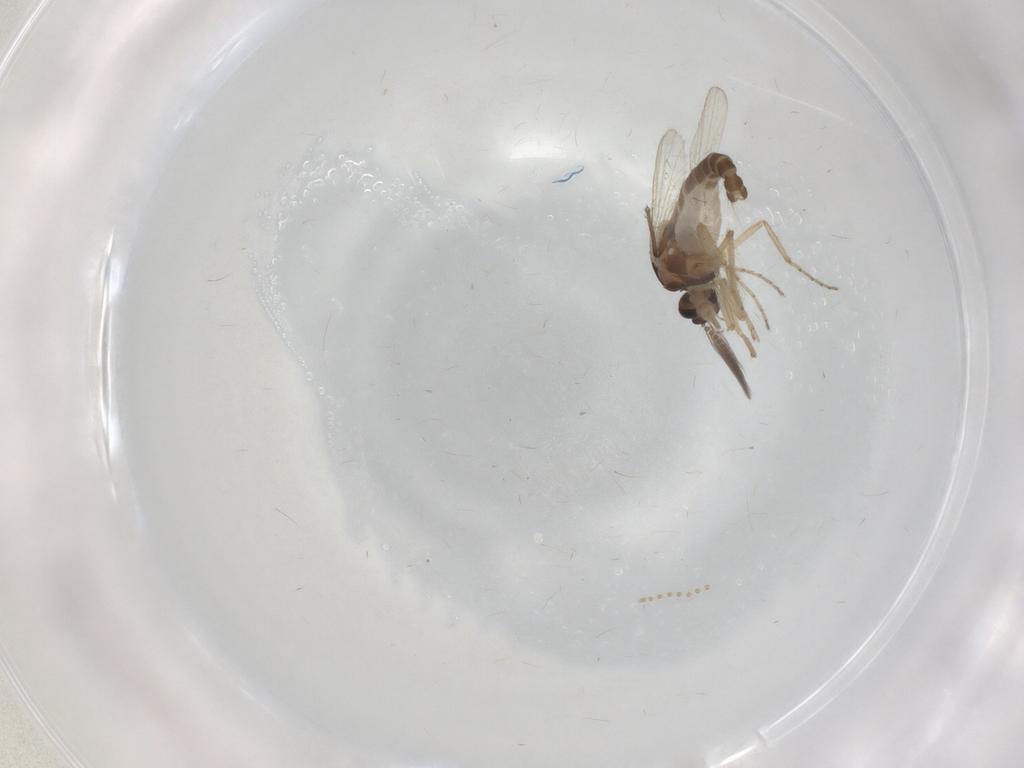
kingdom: Animalia
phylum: Arthropoda
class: Insecta
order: Diptera
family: Ceratopogonidae
